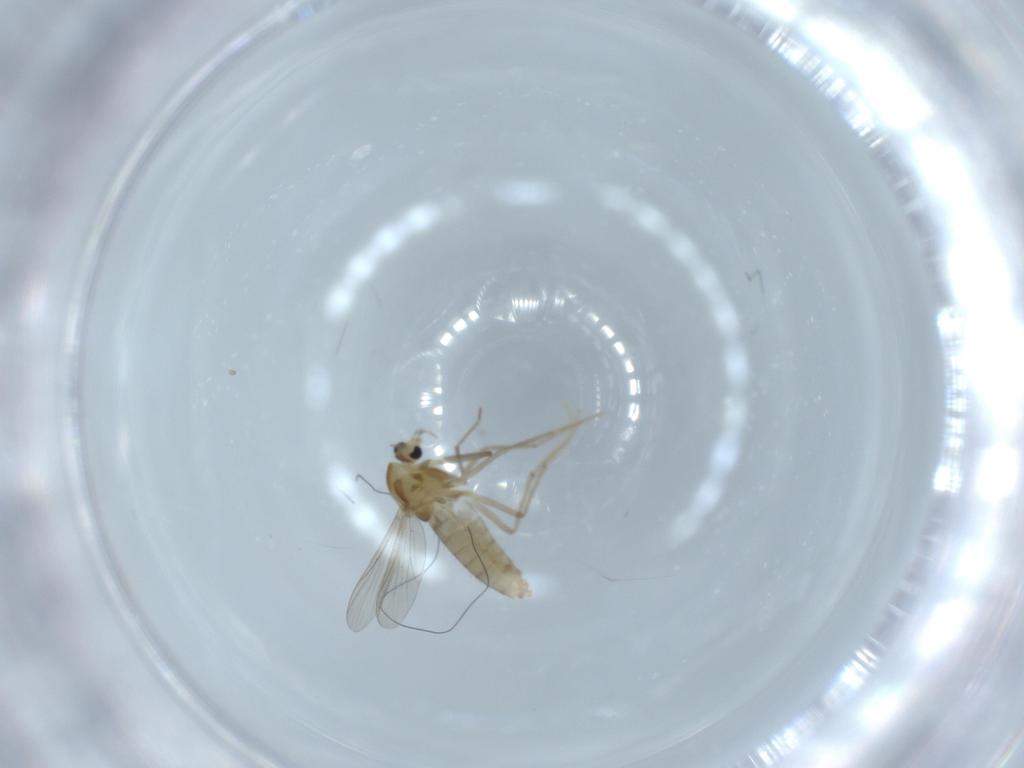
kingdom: Animalia
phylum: Arthropoda
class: Insecta
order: Diptera
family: Chironomidae
